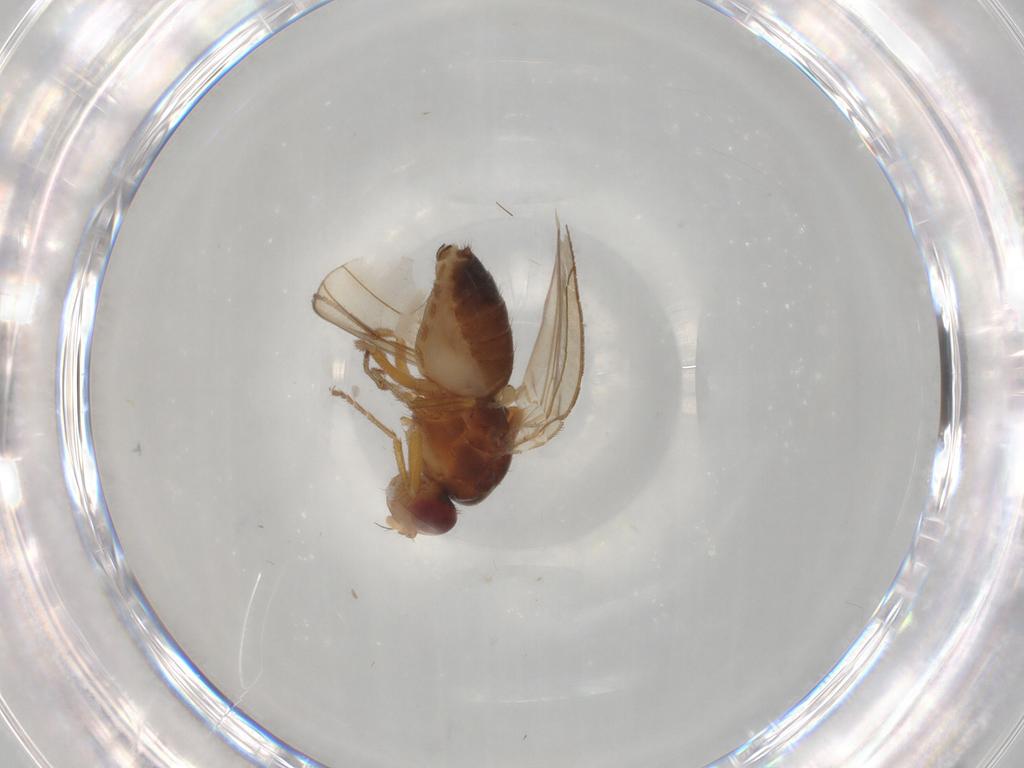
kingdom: Animalia
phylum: Arthropoda
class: Insecta
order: Diptera
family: Drosophilidae
